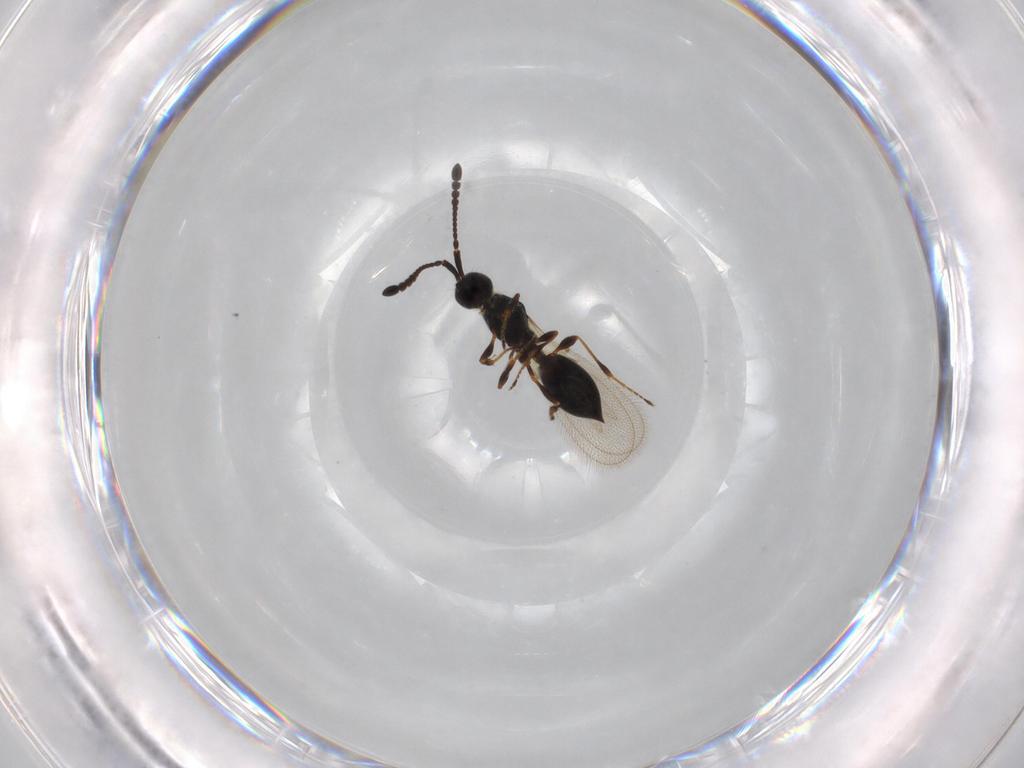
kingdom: Animalia
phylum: Arthropoda
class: Insecta
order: Hymenoptera
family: Diapriidae
